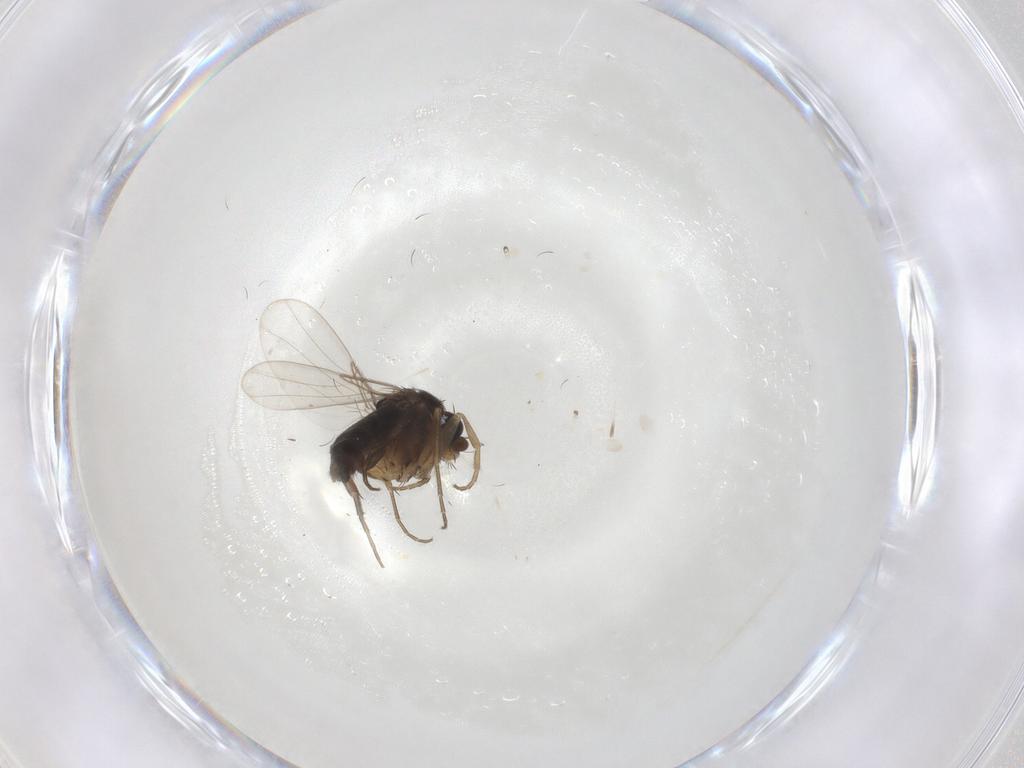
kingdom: Animalia
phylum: Arthropoda
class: Insecta
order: Diptera
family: Phoridae
